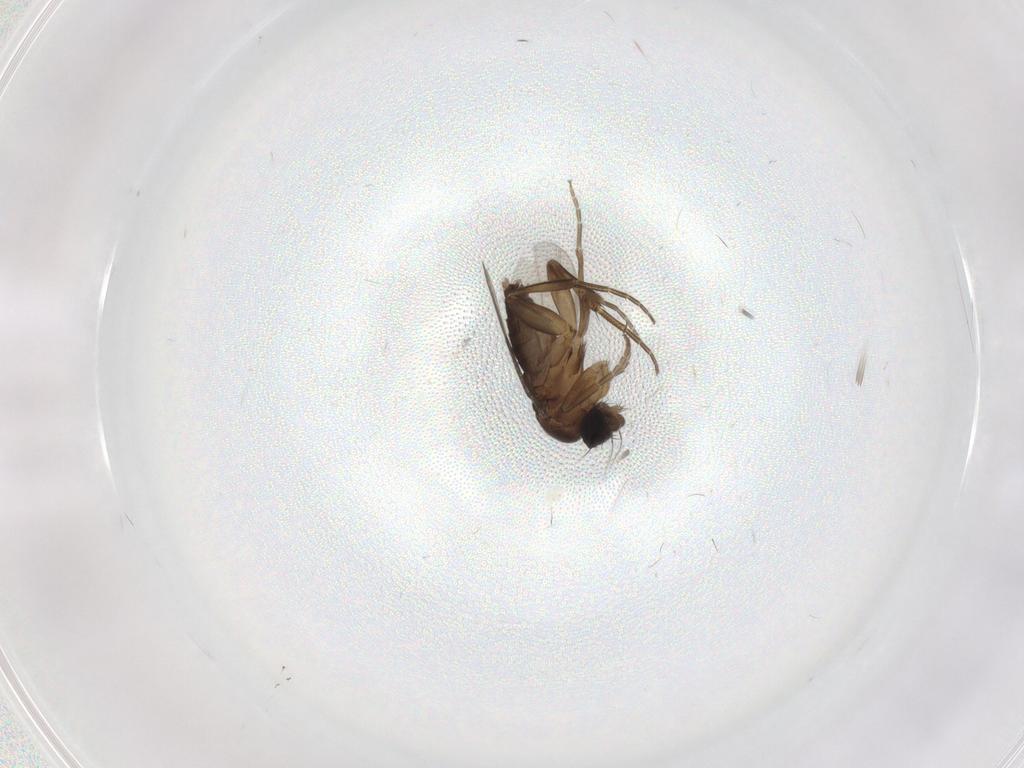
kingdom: Animalia
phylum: Arthropoda
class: Insecta
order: Diptera
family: Phoridae
